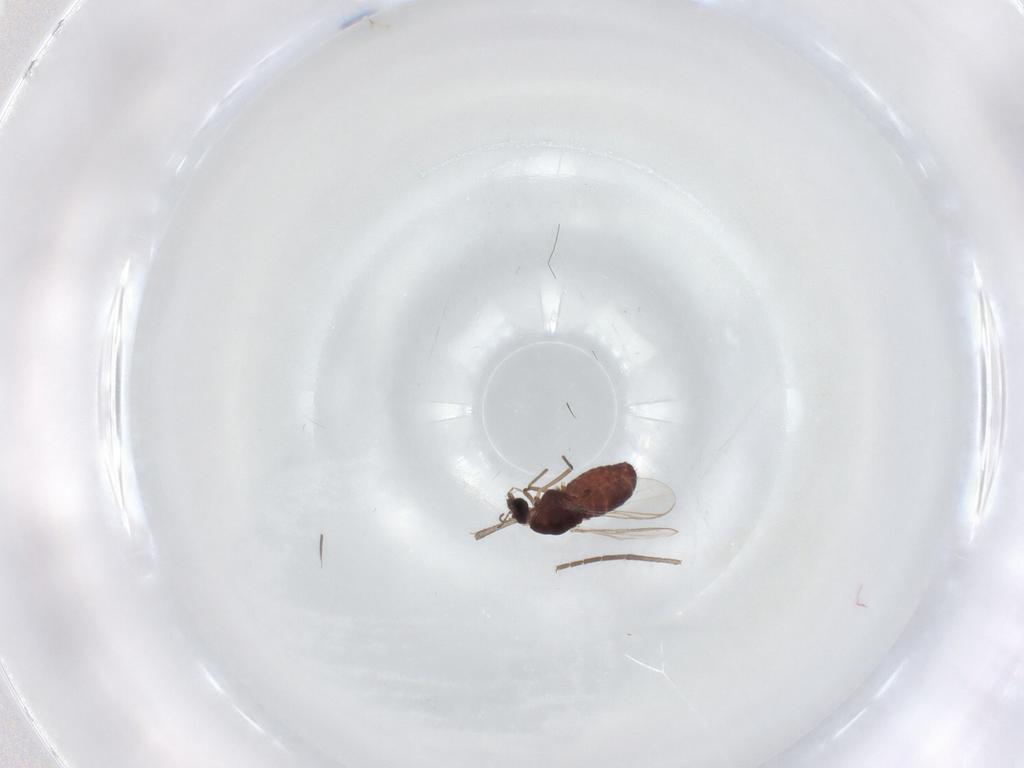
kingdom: Animalia
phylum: Arthropoda
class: Insecta
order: Diptera
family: Chironomidae
